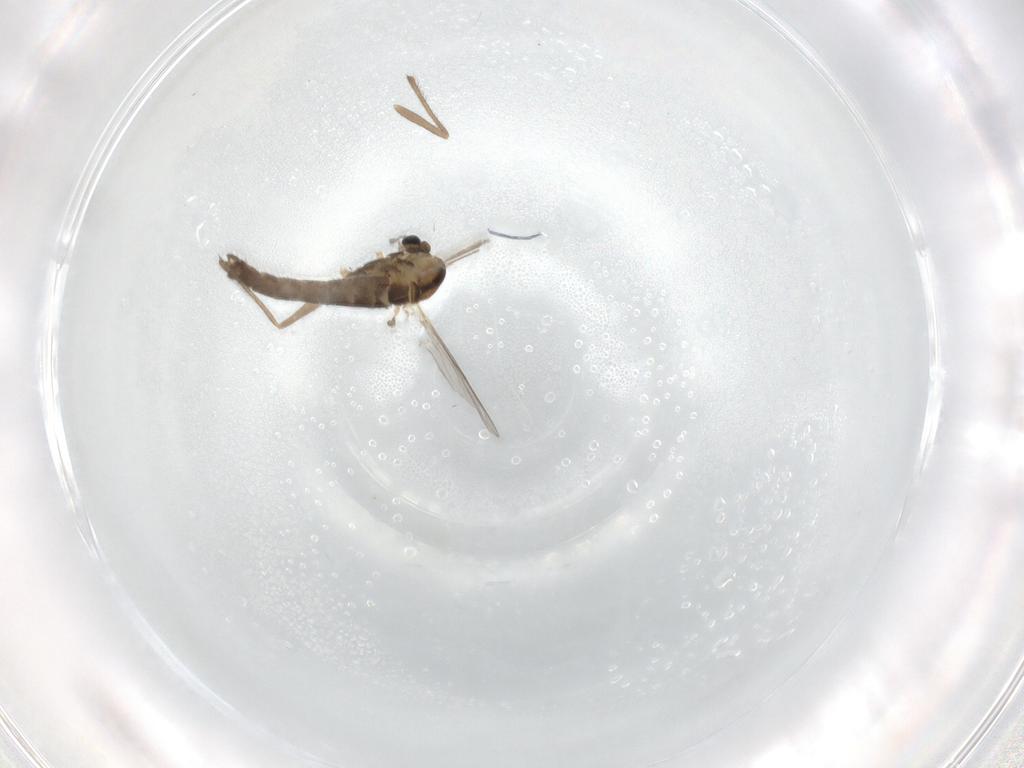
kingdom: Animalia
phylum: Arthropoda
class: Insecta
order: Diptera
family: Chironomidae
